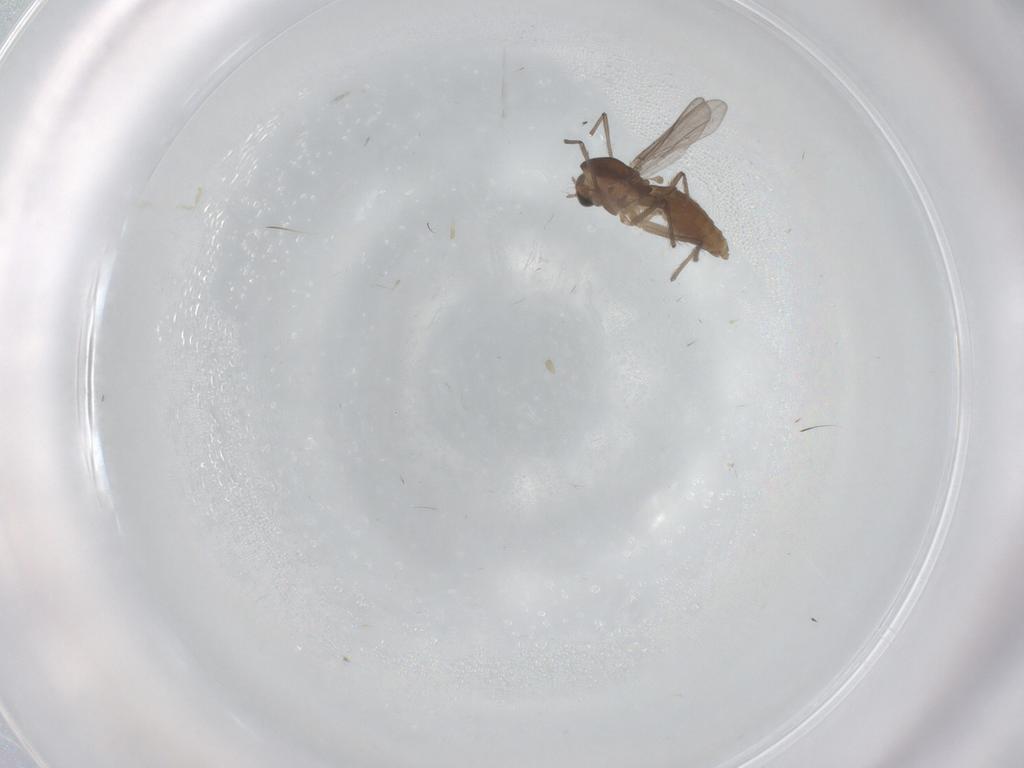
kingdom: Animalia
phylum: Arthropoda
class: Insecta
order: Diptera
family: Chironomidae
